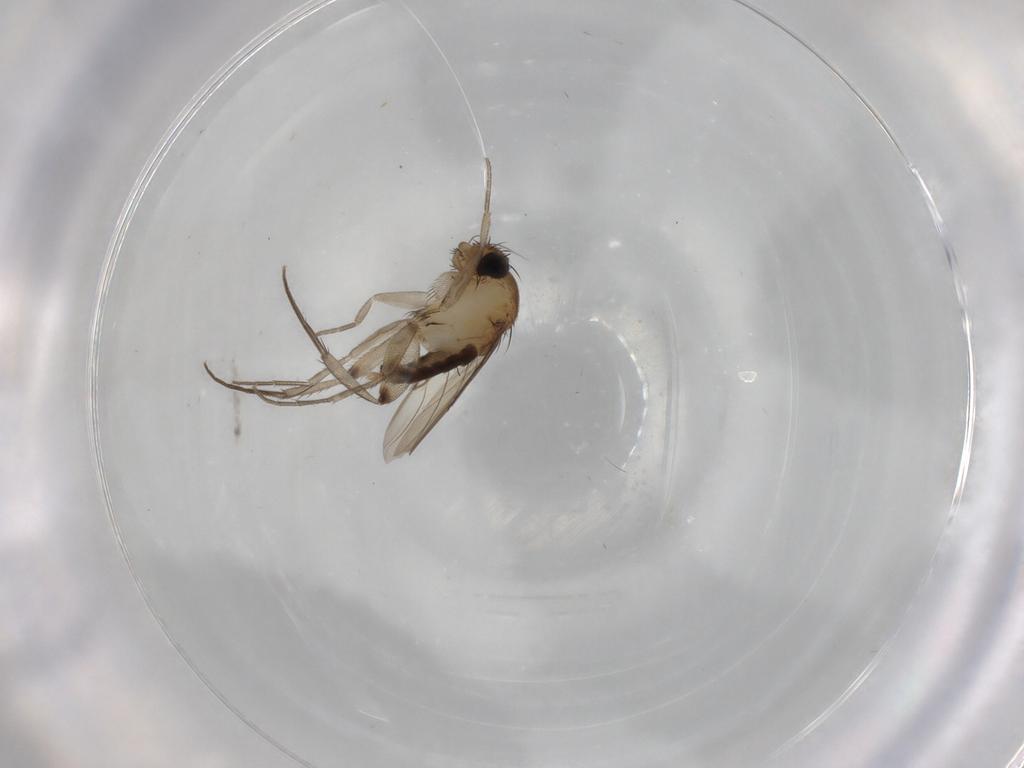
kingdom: Animalia
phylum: Arthropoda
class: Insecta
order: Diptera
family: Phoridae
